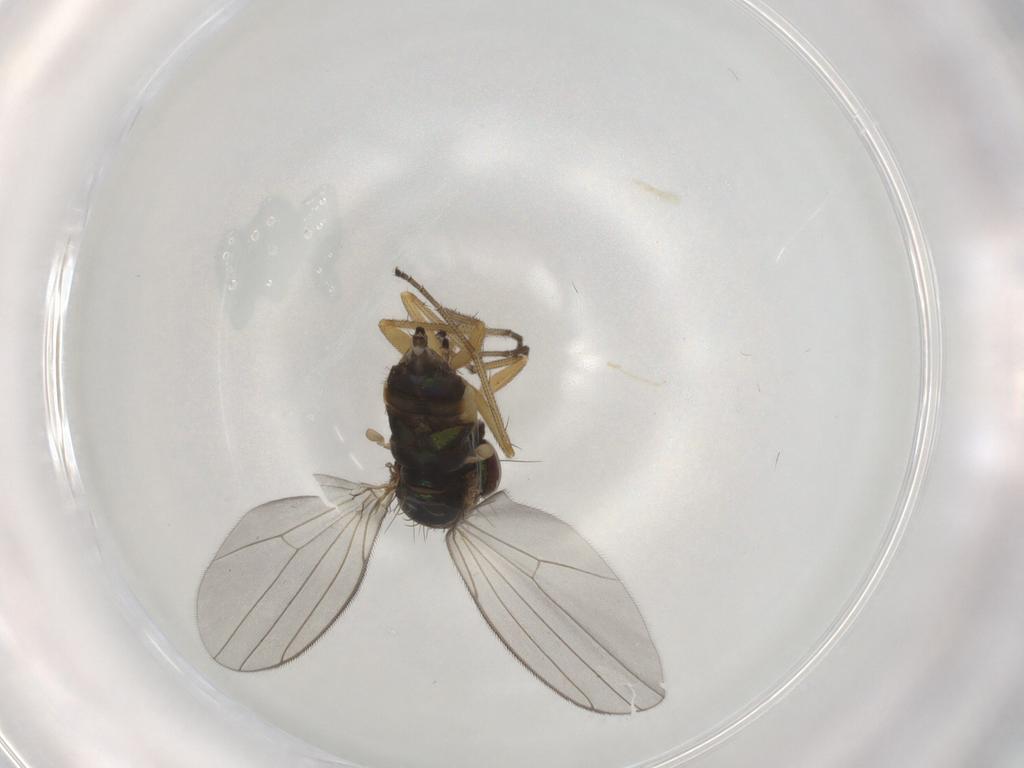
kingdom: Animalia
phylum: Arthropoda
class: Insecta
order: Diptera
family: Dolichopodidae
